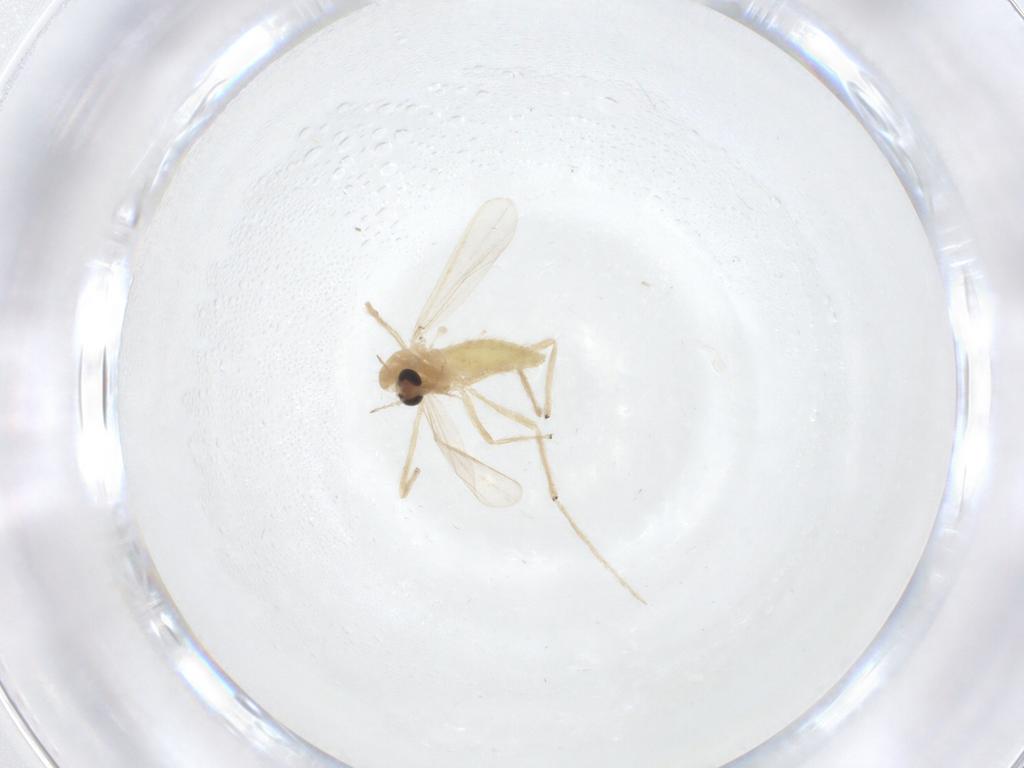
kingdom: Animalia
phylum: Arthropoda
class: Insecta
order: Diptera
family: Chironomidae
